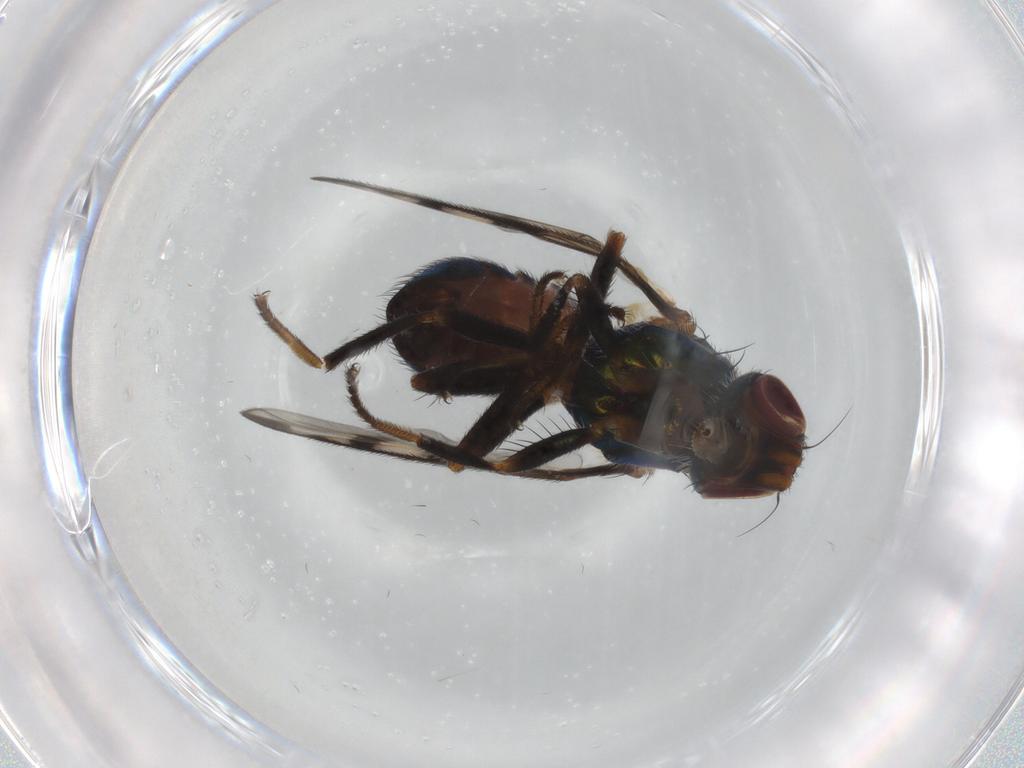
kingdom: Animalia
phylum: Arthropoda
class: Insecta
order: Diptera
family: Platystomatidae
